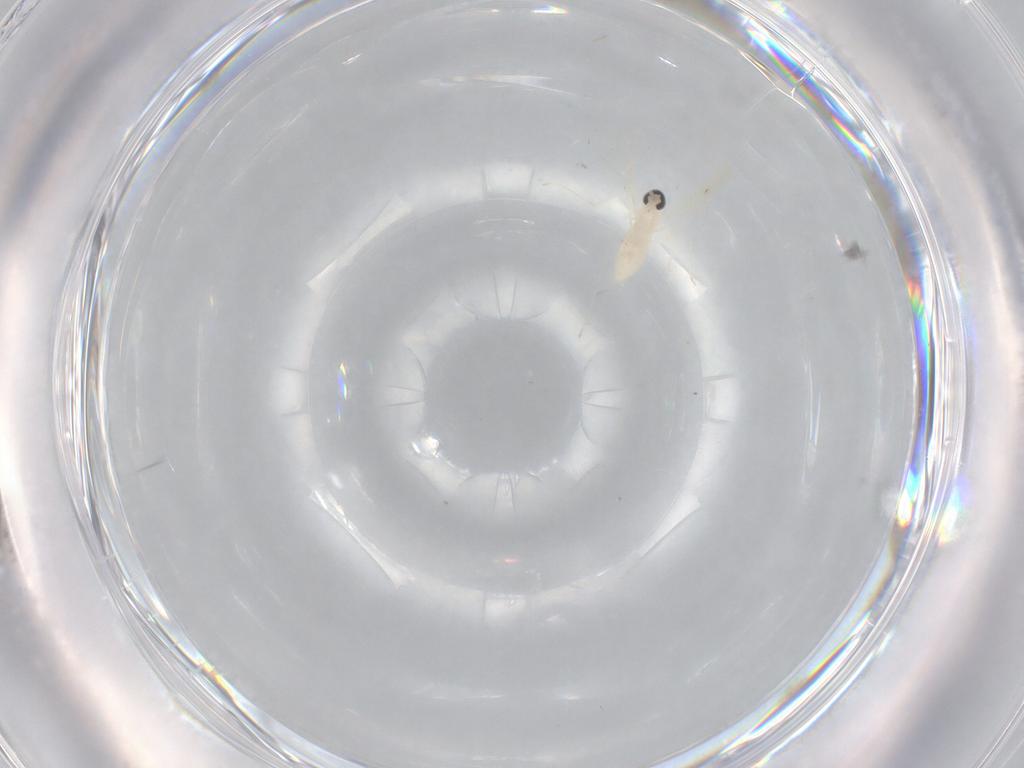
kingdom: Animalia
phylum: Arthropoda
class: Insecta
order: Diptera
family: Cecidomyiidae
